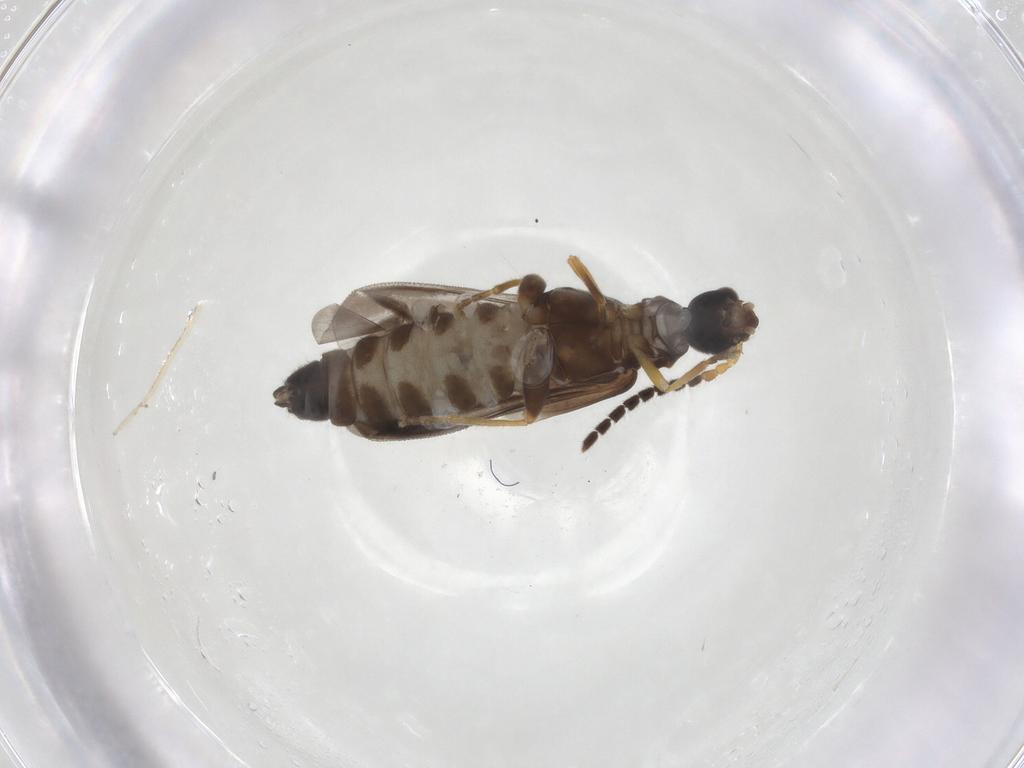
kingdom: Animalia
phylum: Arthropoda
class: Insecta
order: Coleoptera
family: Cantharidae
